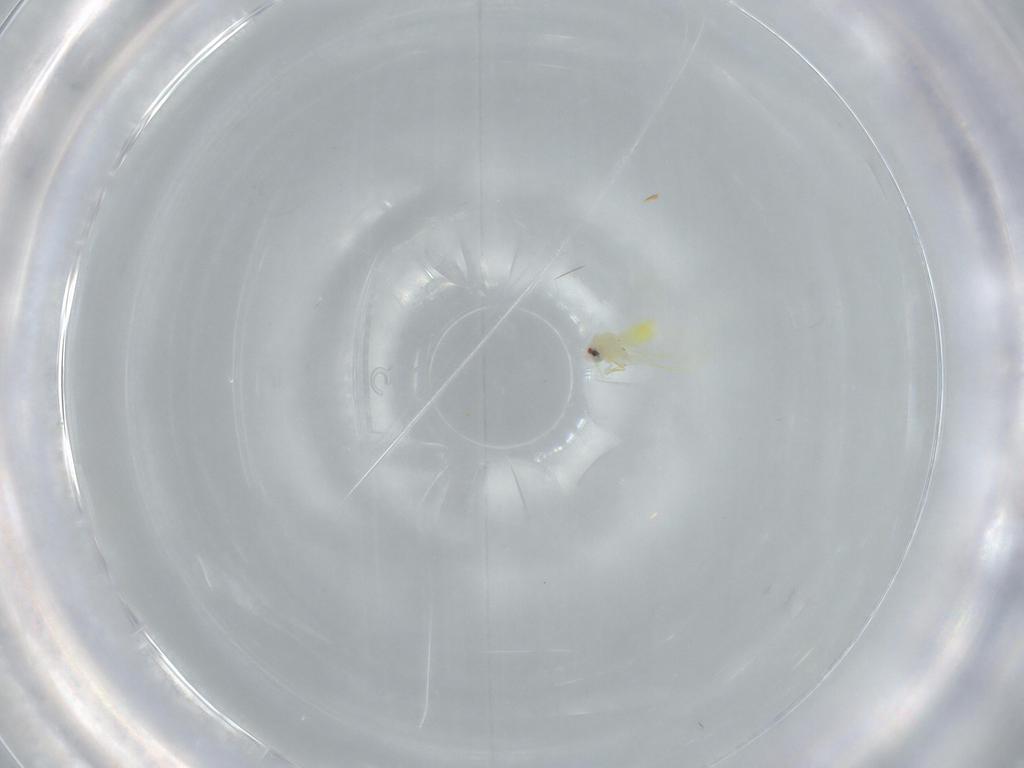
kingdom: Animalia
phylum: Arthropoda
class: Insecta
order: Hemiptera
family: Aleyrodidae
